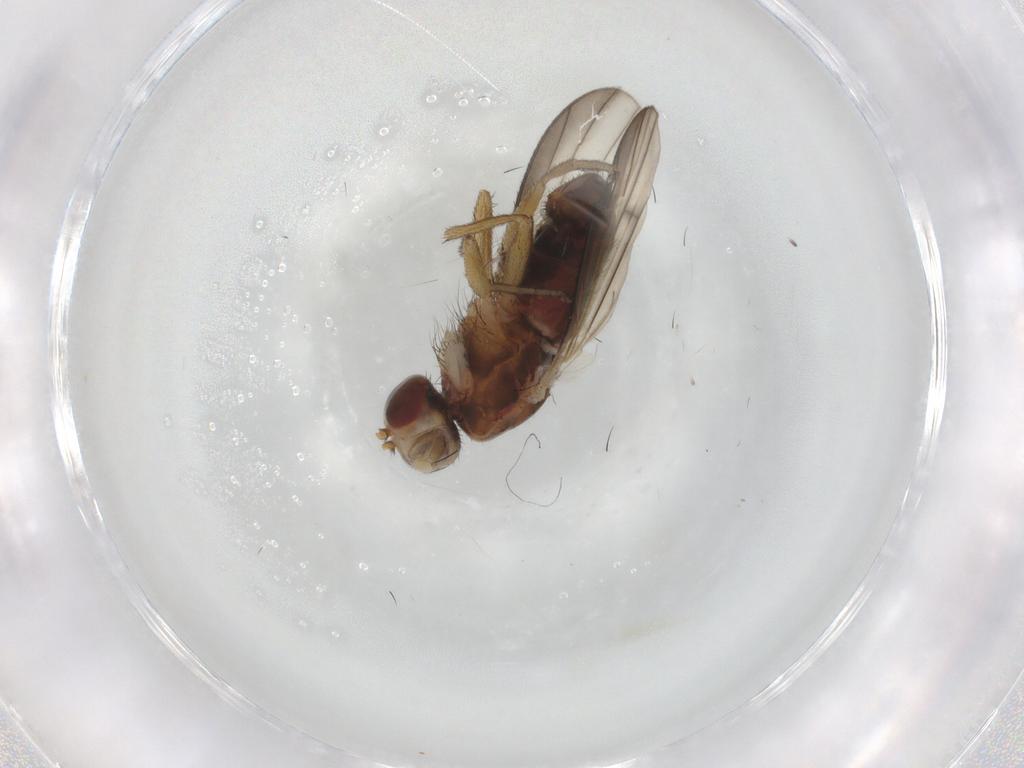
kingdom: Animalia
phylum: Arthropoda
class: Insecta
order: Diptera
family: Heleomyzidae
